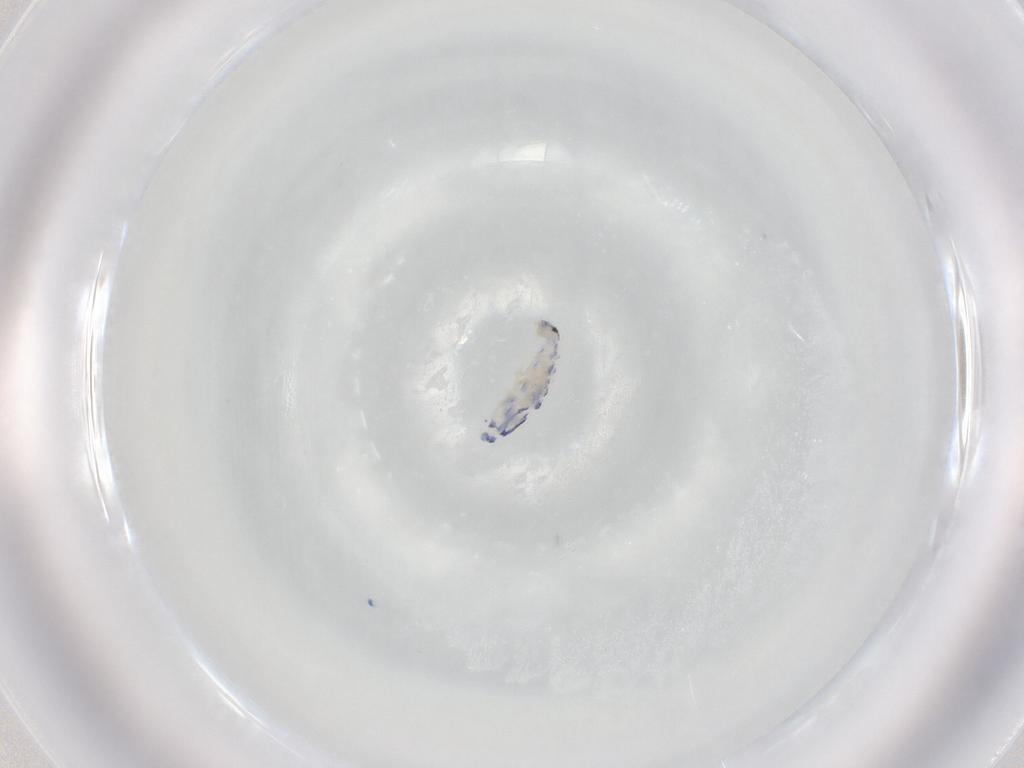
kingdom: Animalia
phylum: Arthropoda
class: Collembola
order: Entomobryomorpha
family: Entomobryidae
